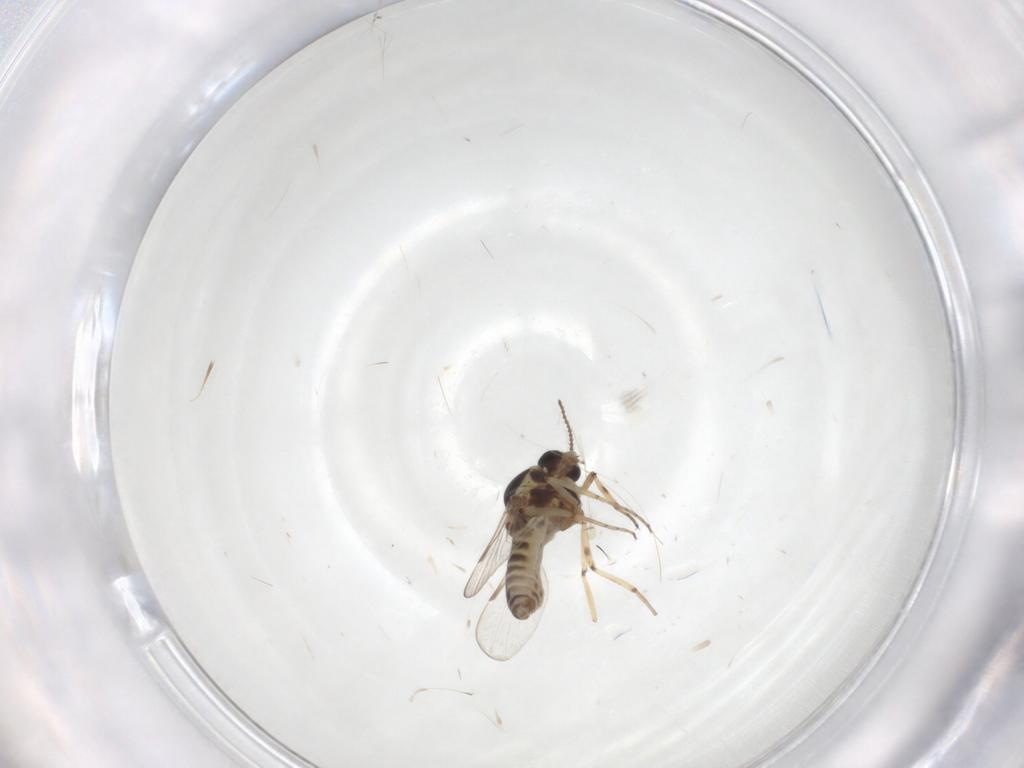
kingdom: Animalia
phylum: Arthropoda
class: Insecta
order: Diptera
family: Ceratopogonidae
